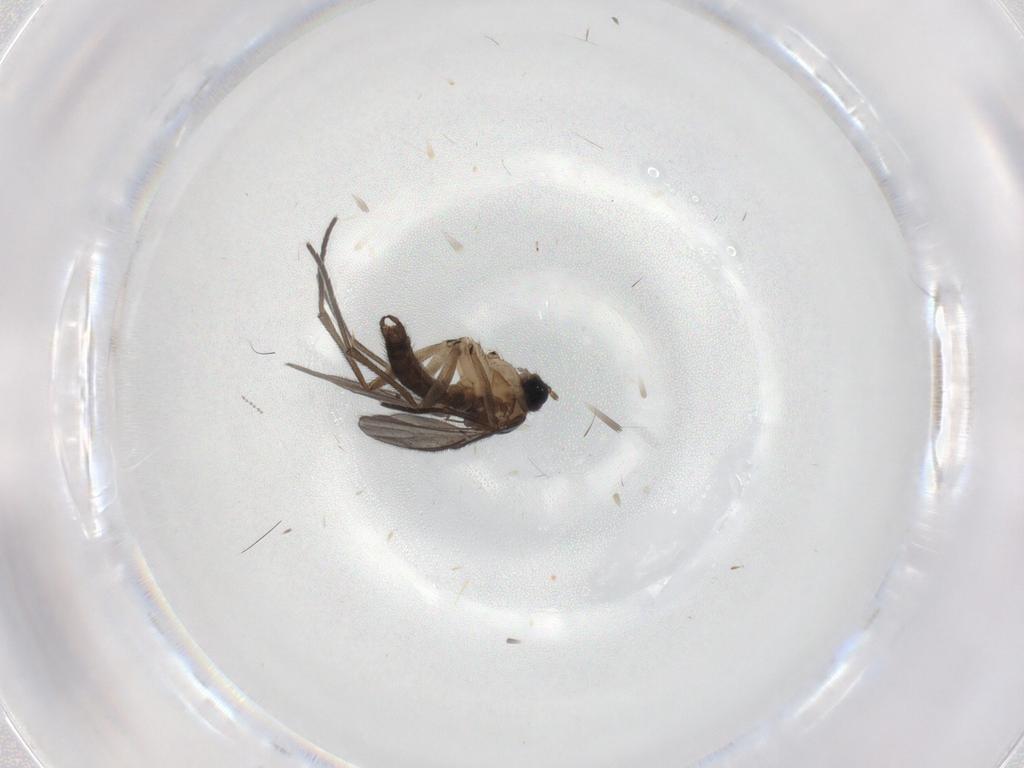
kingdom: Animalia
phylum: Arthropoda
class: Insecta
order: Diptera
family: Sciaridae
